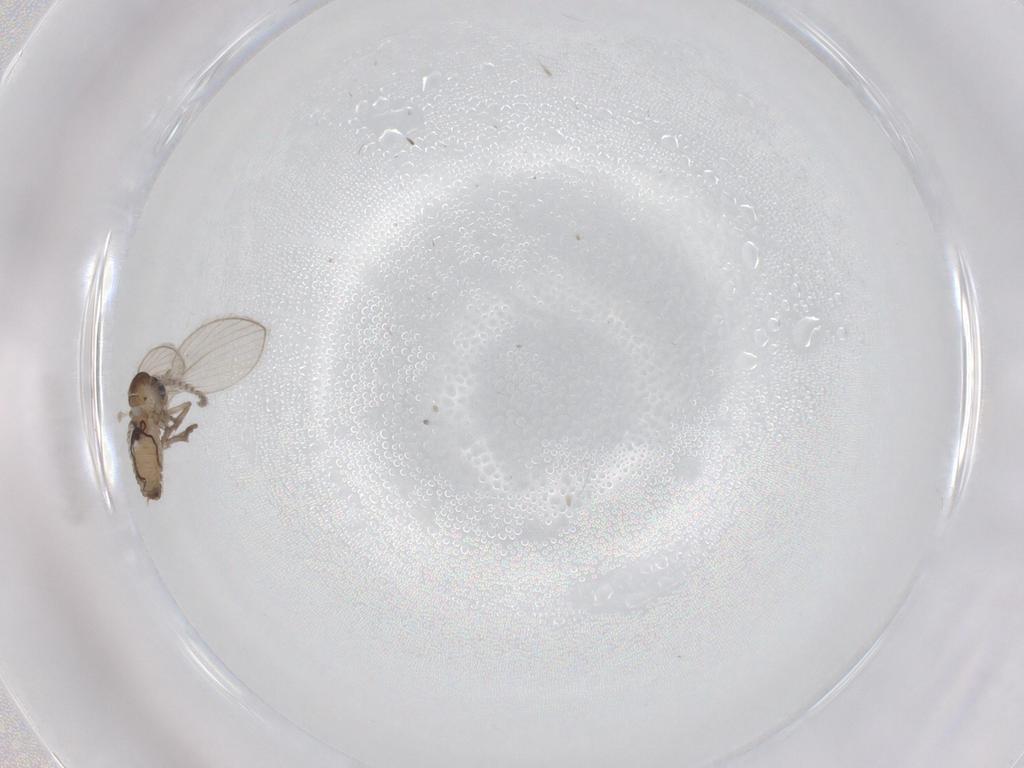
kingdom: Animalia
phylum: Arthropoda
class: Insecta
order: Diptera
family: Psychodidae
